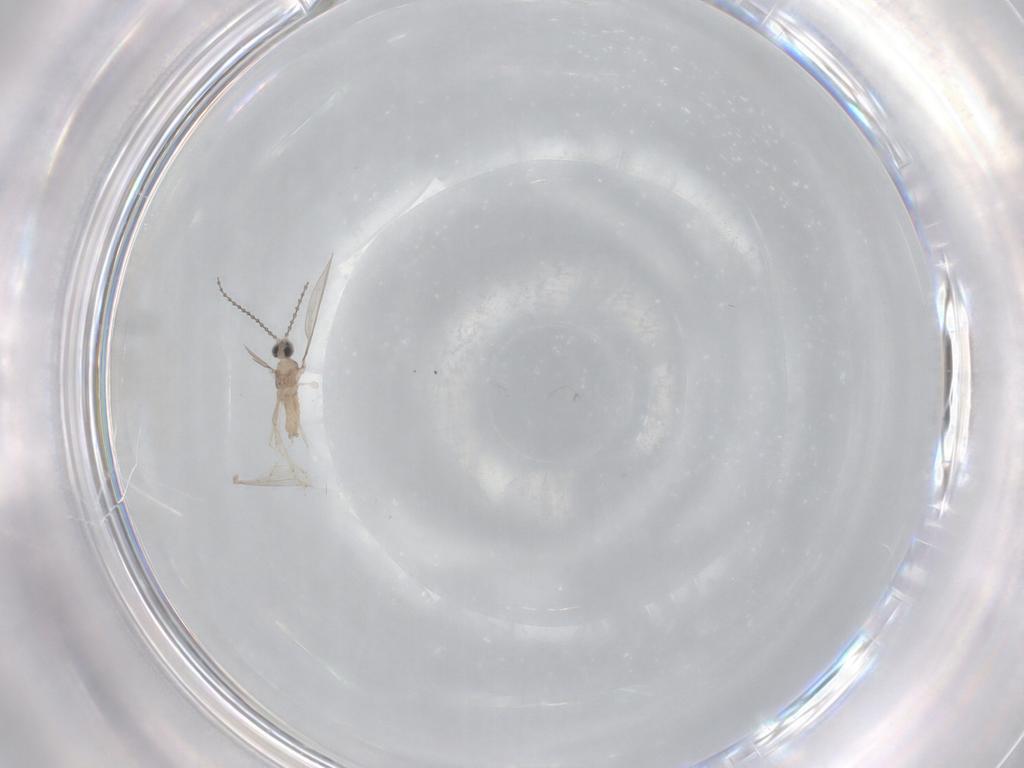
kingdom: Animalia
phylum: Arthropoda
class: Insecta
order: Diptera
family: Cecidomyiidae
